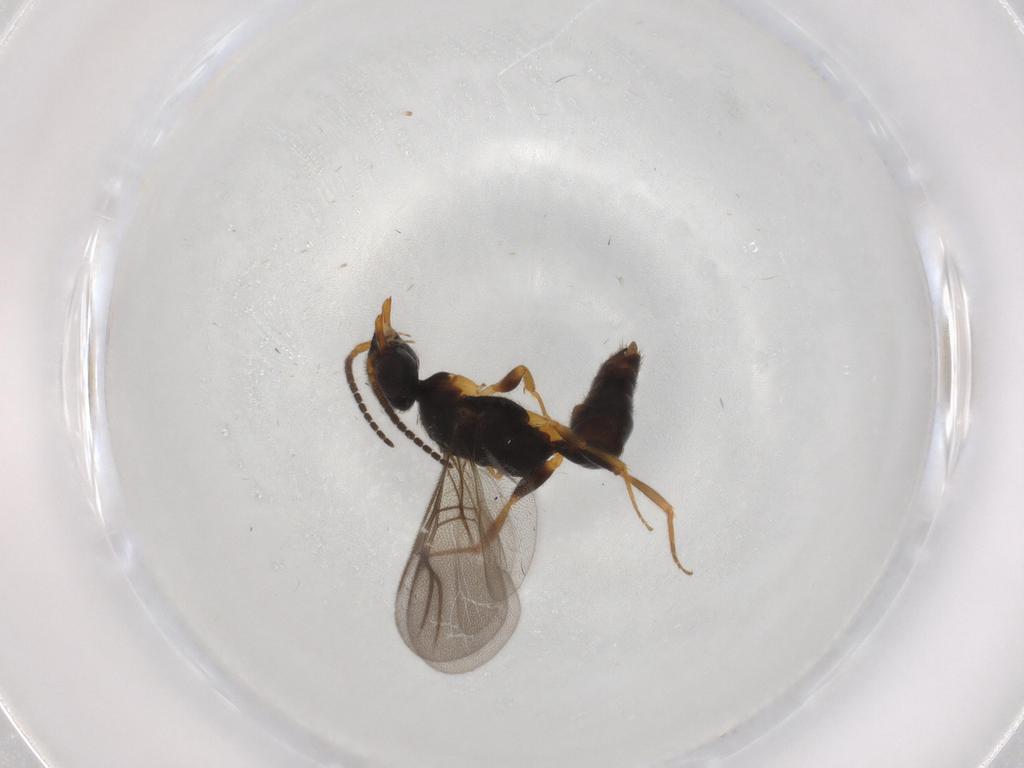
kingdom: Animalia
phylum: Arthropoda
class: Insecta
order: Hymenoptera
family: Bethylidae
